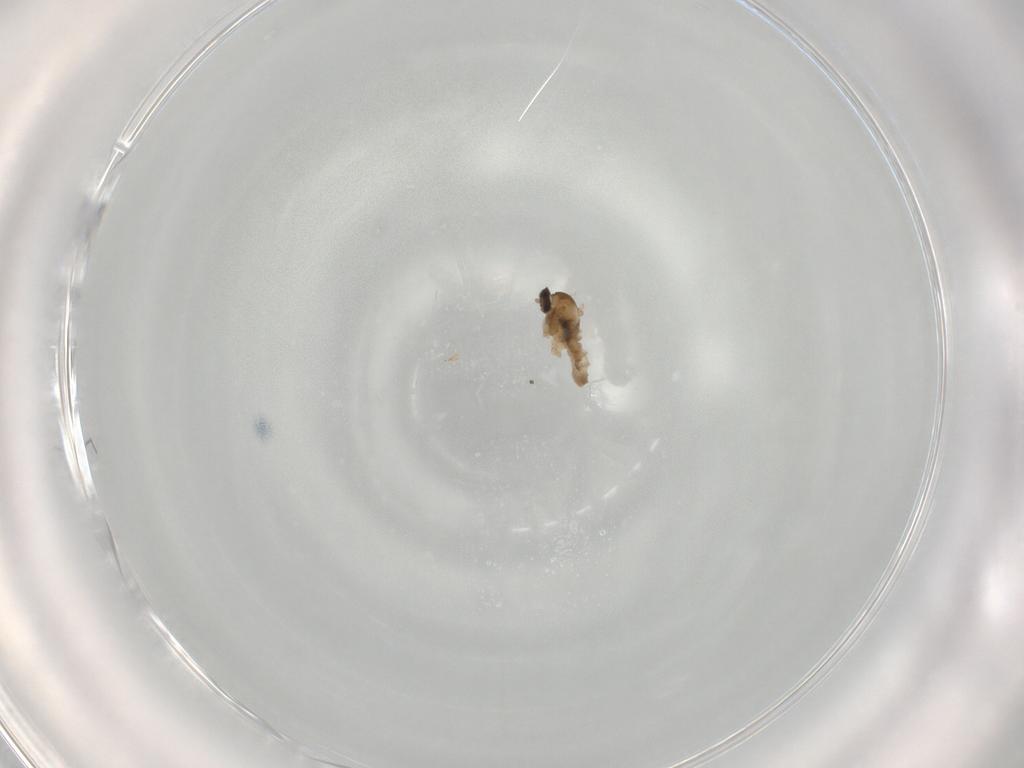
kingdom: Animalia
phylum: Arthropoda
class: Insecta
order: Diptera
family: Cecidomyiidae
